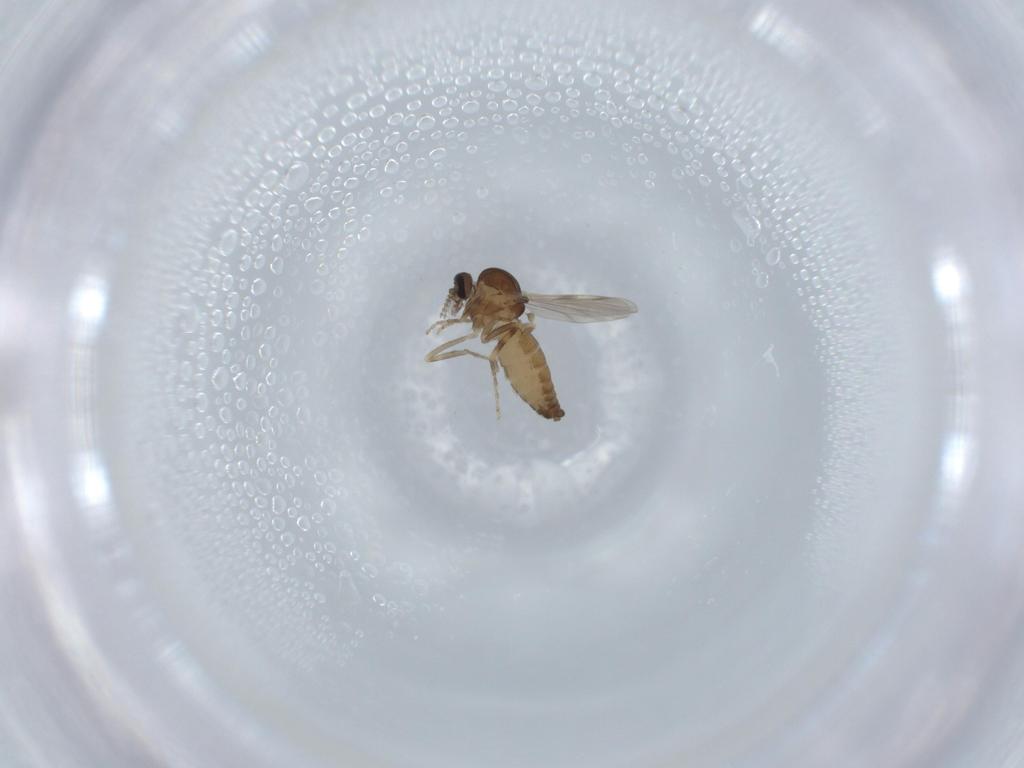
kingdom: Animalia
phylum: Arthropoda
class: Insecta
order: Diptera
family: Ceratopogonidae
